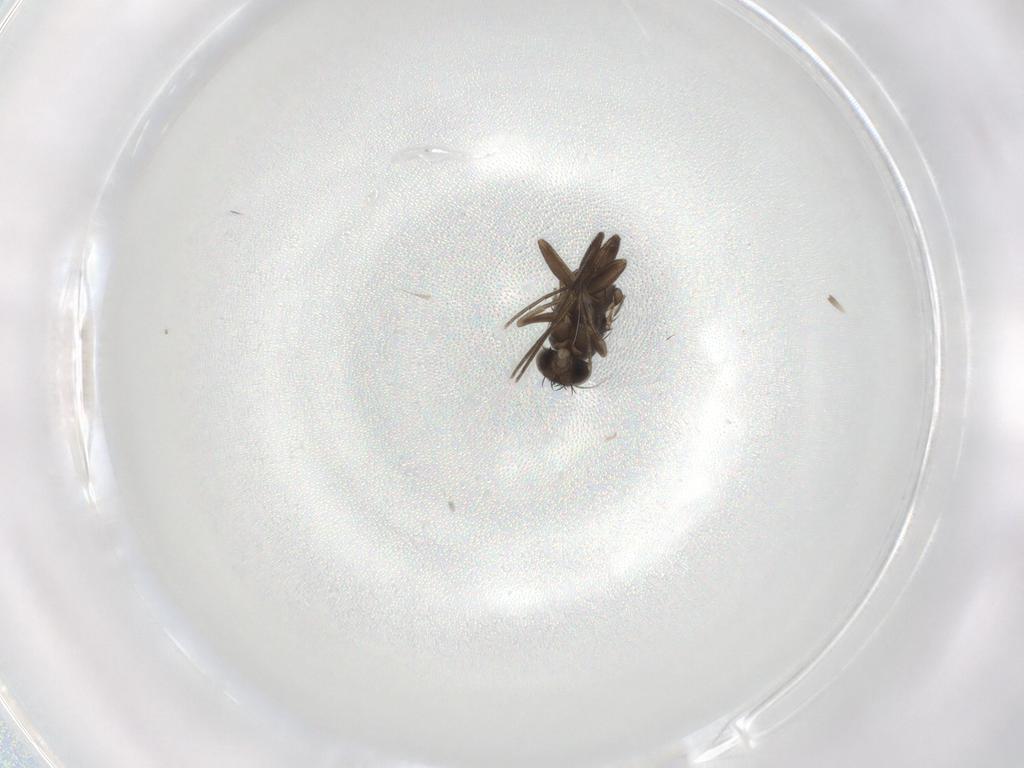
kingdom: Animalia
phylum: Arthropoda
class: Insecta
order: Diptera
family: Phoridae
